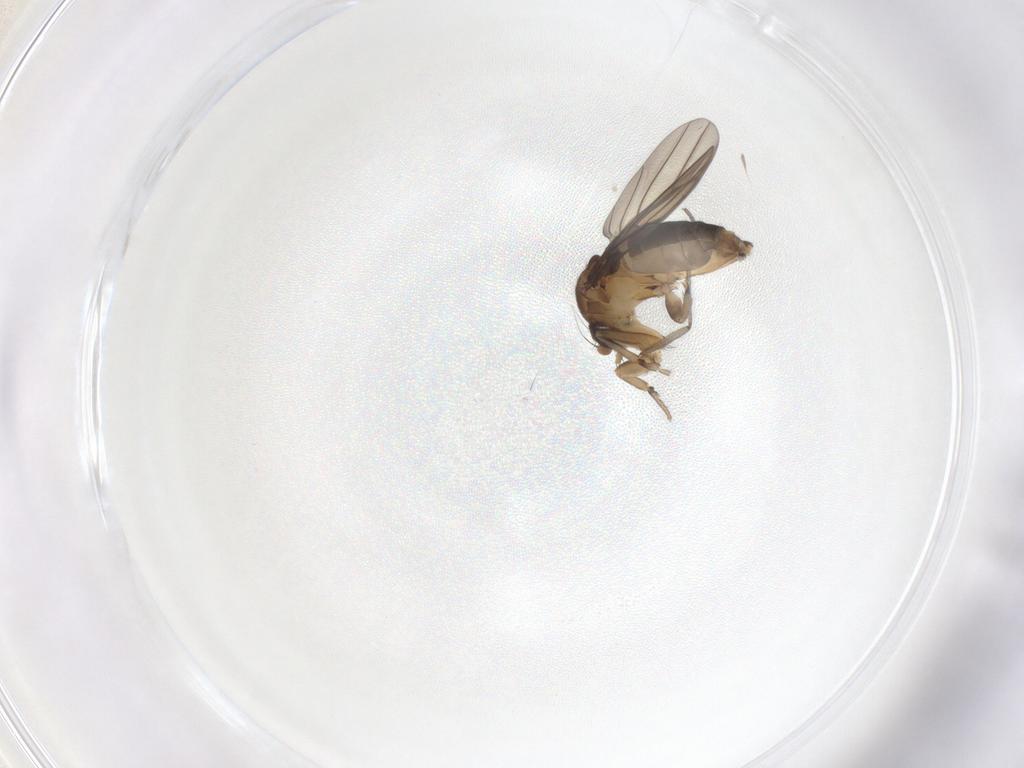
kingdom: Animalia
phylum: Arthropoda
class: Insecta
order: Diptera
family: Sciaridae
